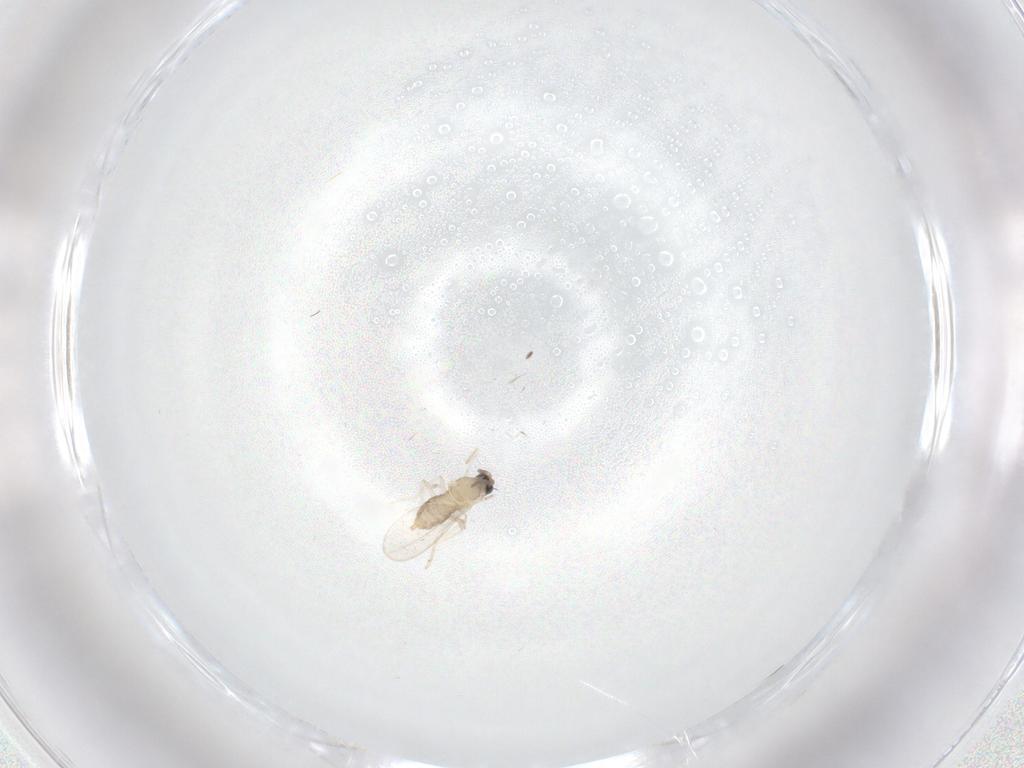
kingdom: Animalia
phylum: Arthropoda
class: Insecta
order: Diptera
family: Cecidomyiidae
